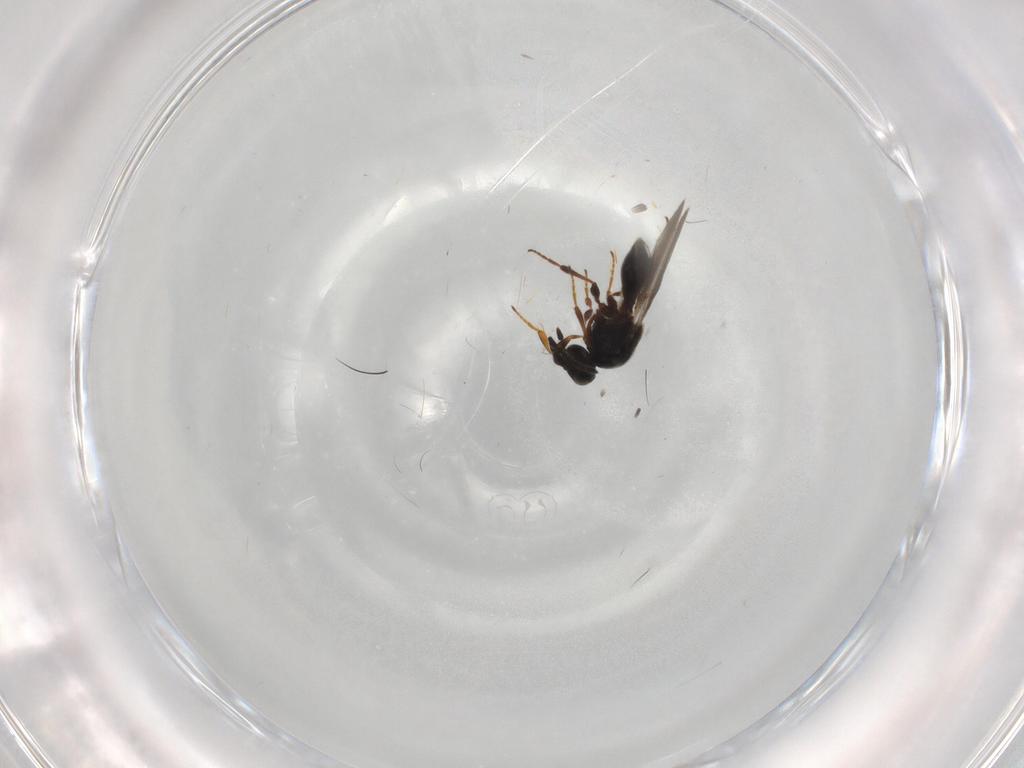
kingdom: Animalia
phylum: Arthropoda
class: Insecta
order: Hymenoptera
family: Platygastridae
